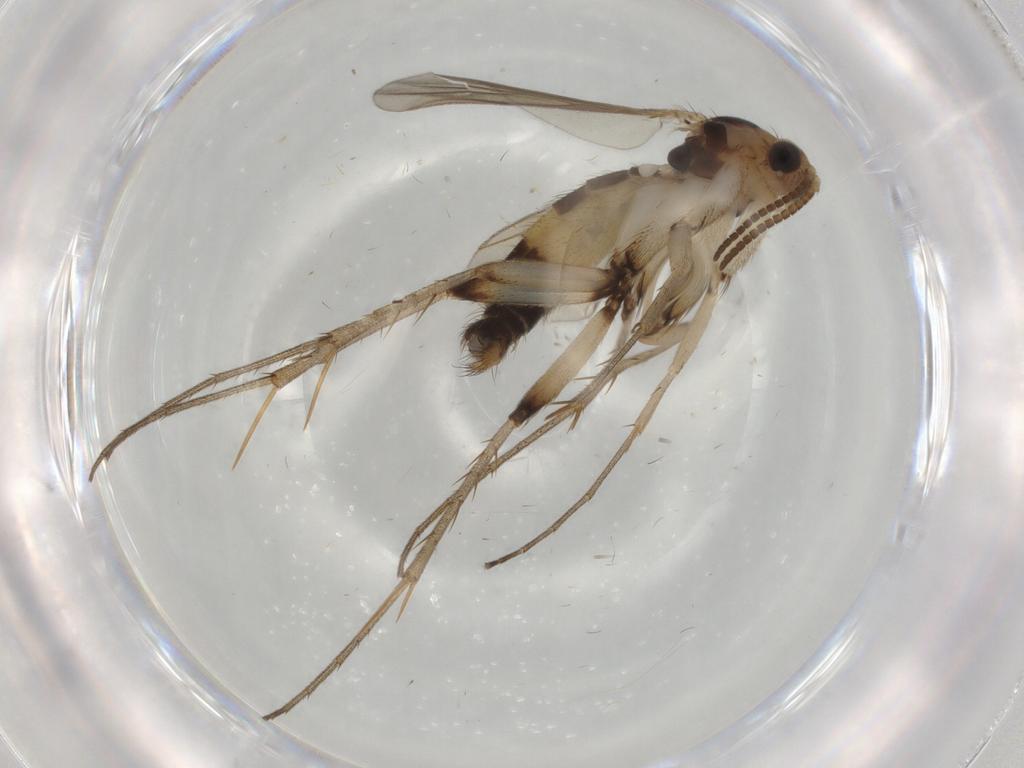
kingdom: Animalia
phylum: Arthropoda
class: Insecta
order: Diptera
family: Mycetophilidae
